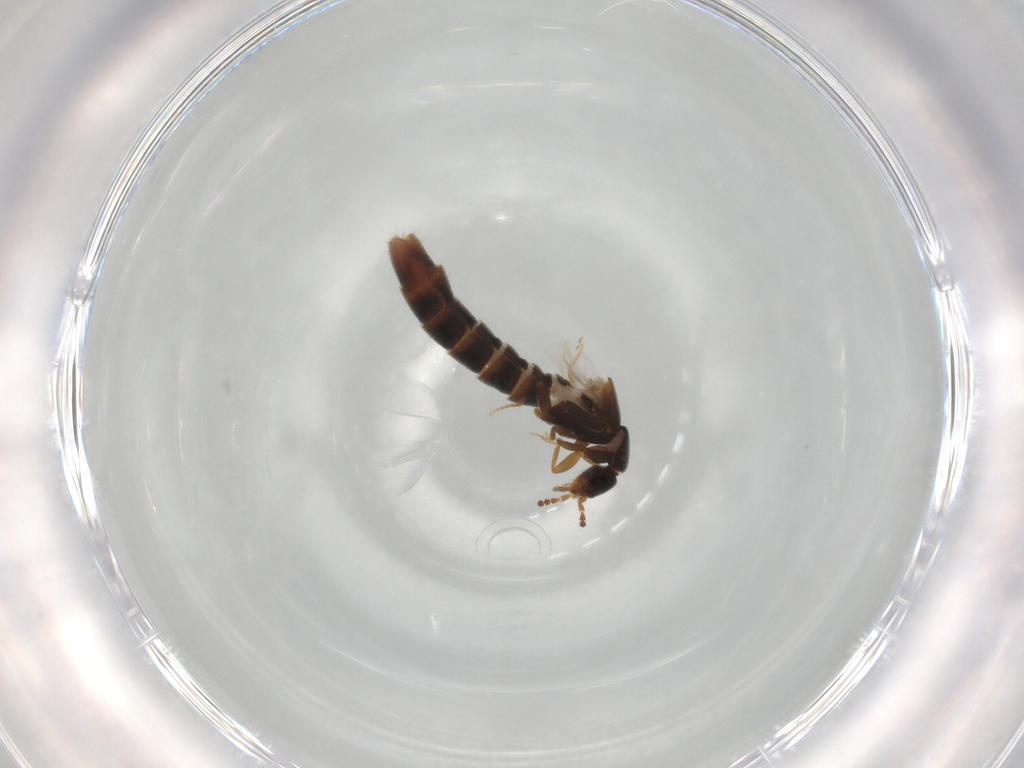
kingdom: Animalia
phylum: Arthropoda
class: Insecta
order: Coleoptera
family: Staphylinidae
